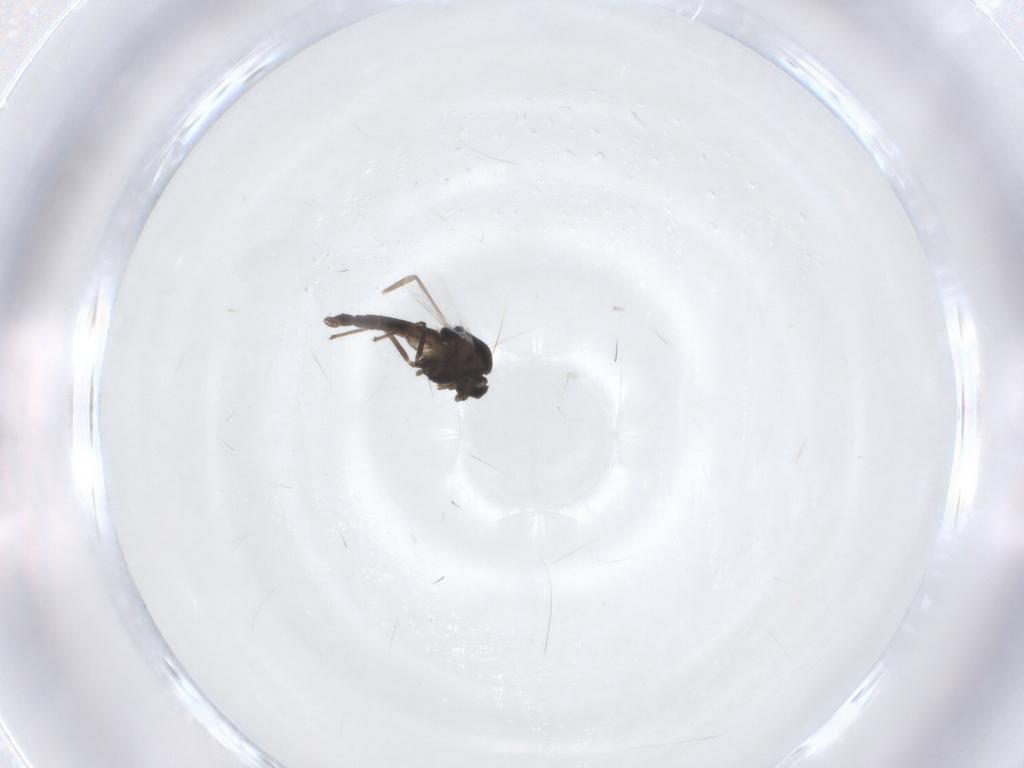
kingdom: Animalia
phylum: Arthropoda
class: Insecta
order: Diptera
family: Chironomidae
